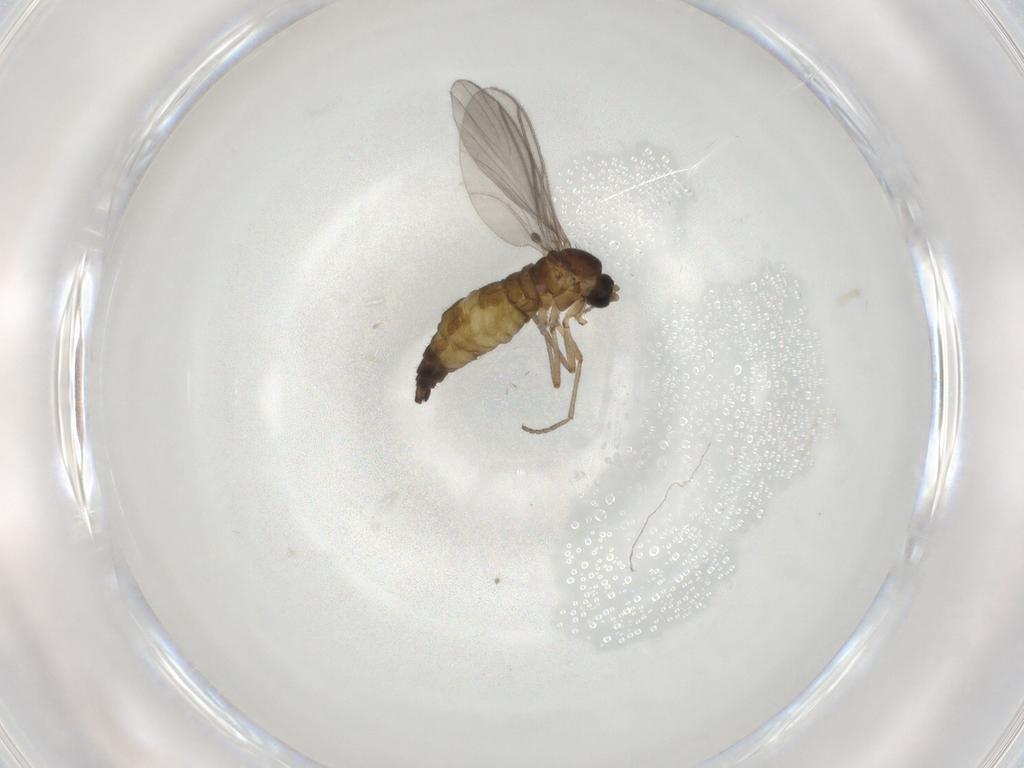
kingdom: Animalia
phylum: Arthropoda
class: Insecta
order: Diptera
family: Sciaridae
